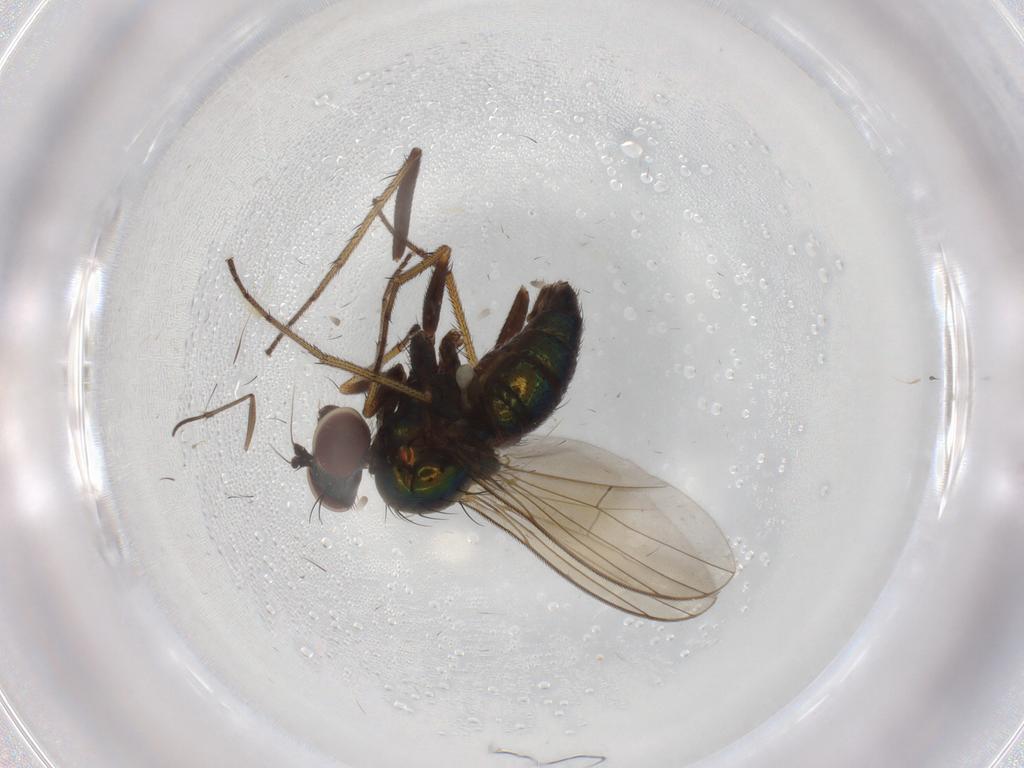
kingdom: Animalia
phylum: Arthropoda
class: Insecta
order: Diptera
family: Dolichopodidae
